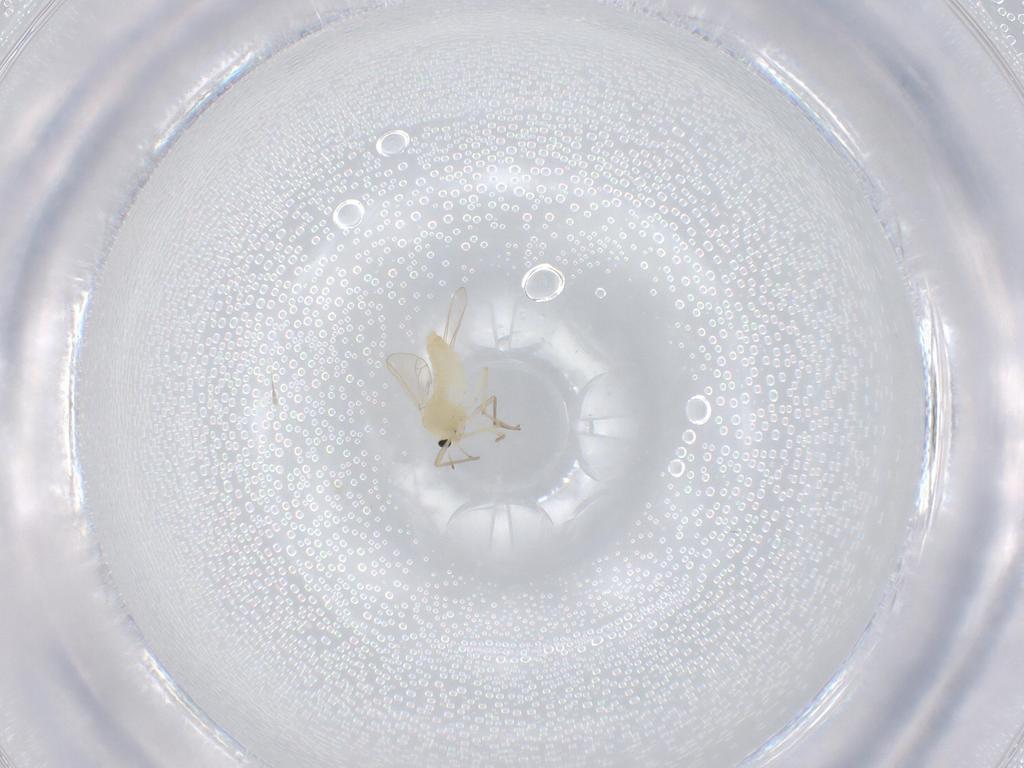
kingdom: Animalia
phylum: Arthropoda
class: Insecta
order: Diptera
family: Chironomidae
